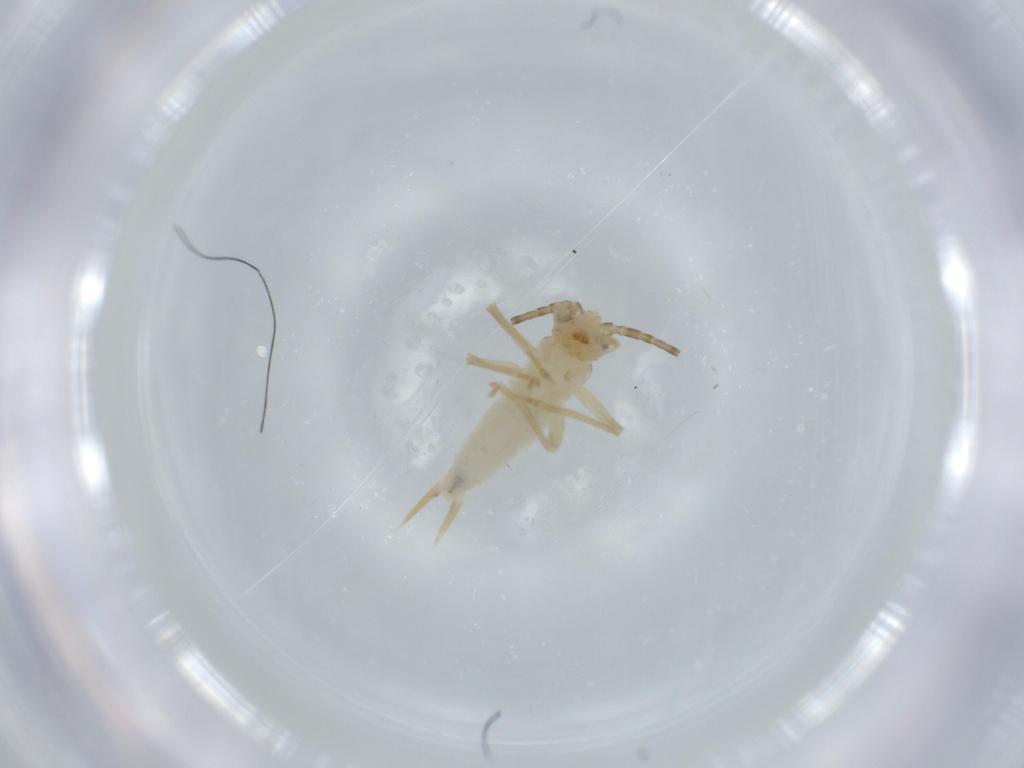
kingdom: Animalia
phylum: Arthropoda
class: Insecta
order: Orthoptera
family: Trigonidiidae
